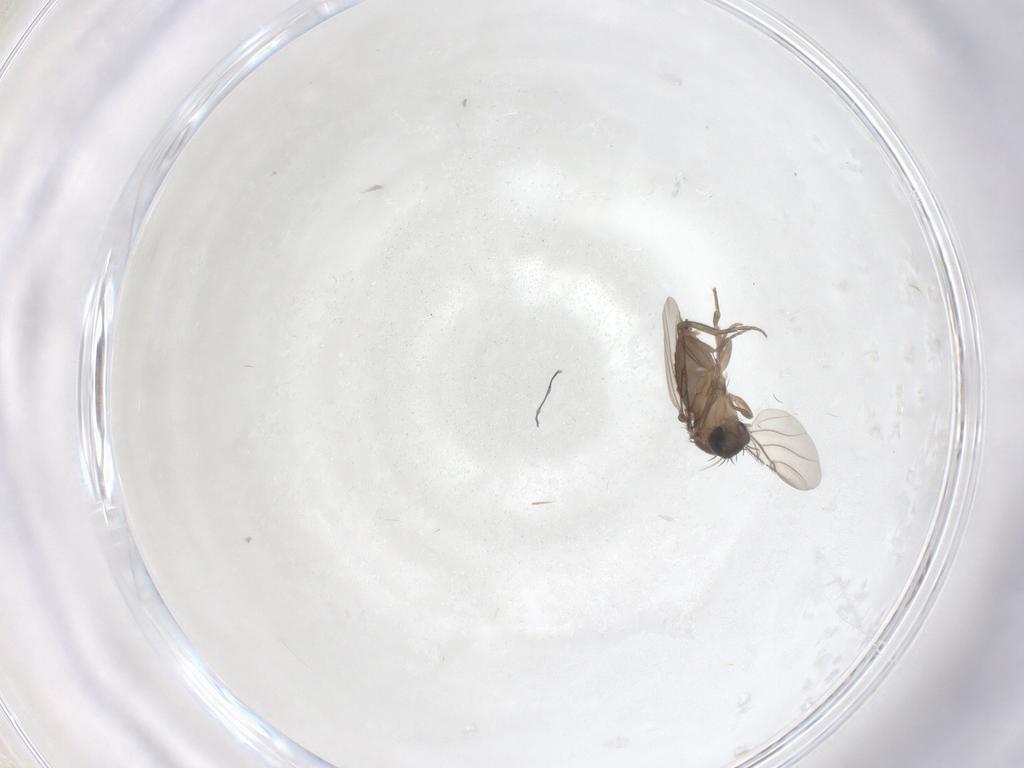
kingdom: Animalia
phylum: Arthropoda
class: Insecta
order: Diptera
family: Phoridae
